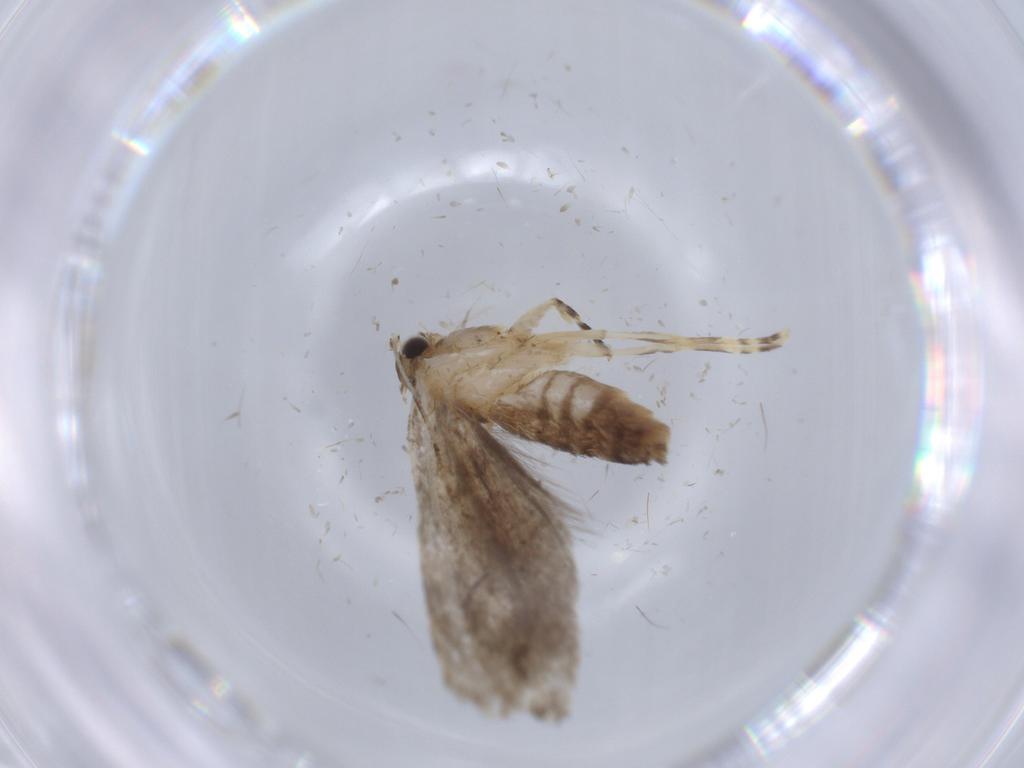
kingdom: Animalia
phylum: Arthropoda
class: Insecta
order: Lepidoptera
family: Tineidae
